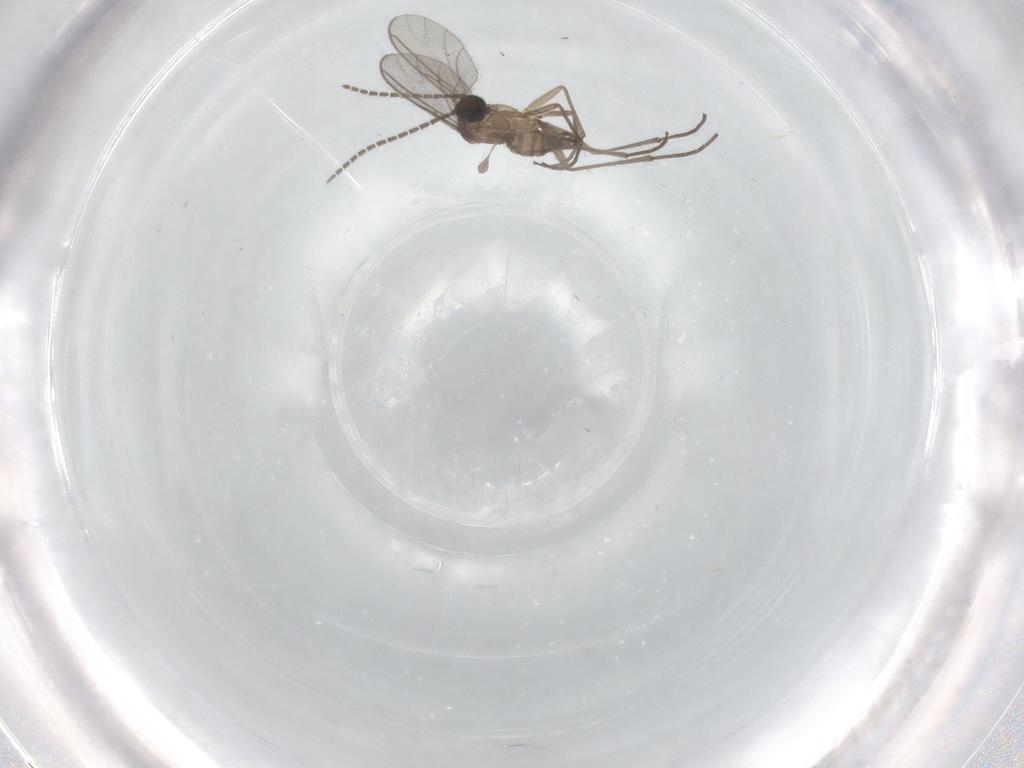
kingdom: Animalia
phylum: Arthropoda
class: Insecta
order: Diptera
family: Sciaridae
